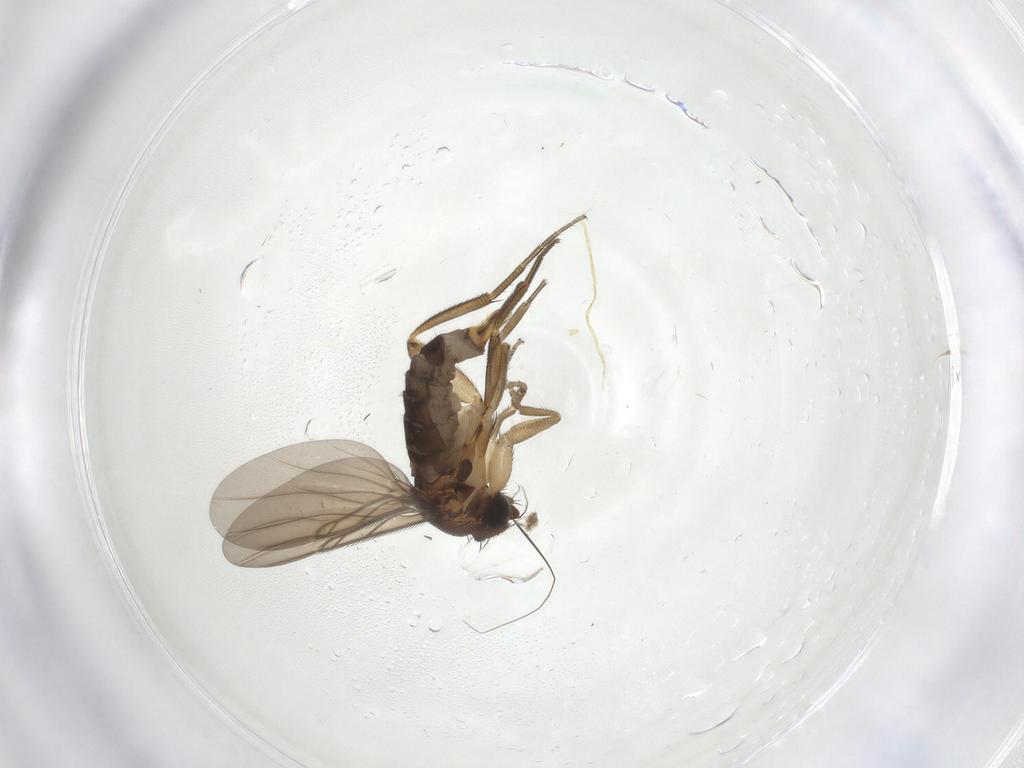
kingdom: Animalia
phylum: Arthropoda
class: Insecta
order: Diptera
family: Phoridae
